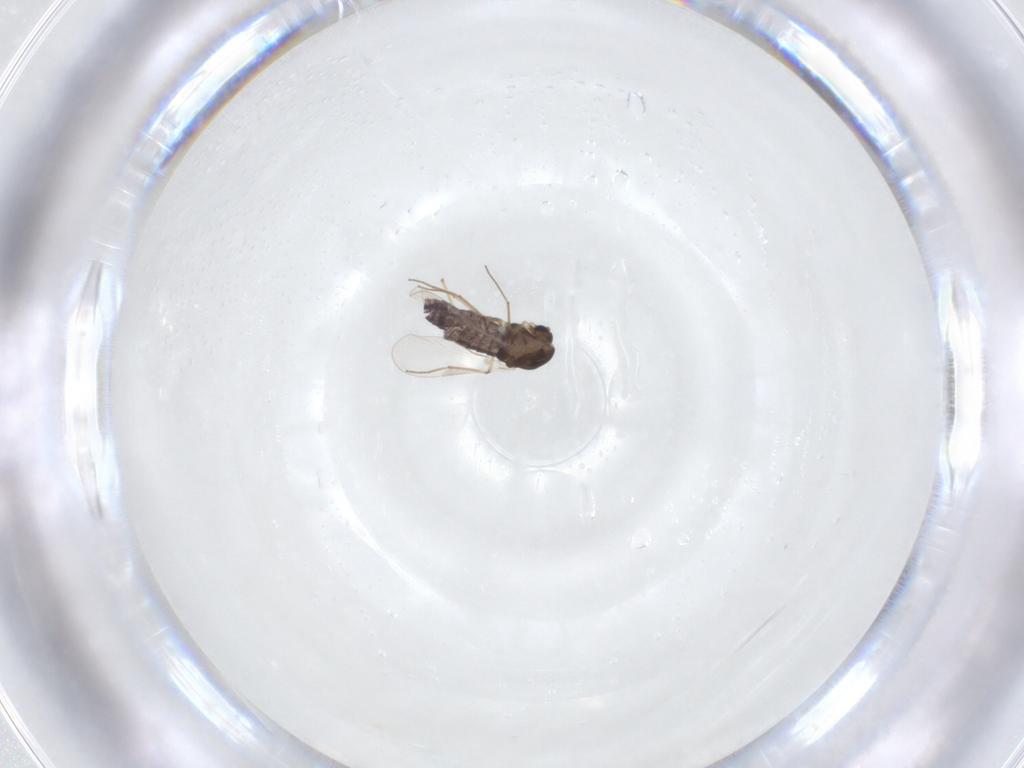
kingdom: Animalia
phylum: Arthropoda
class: Insecta
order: Diptera
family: Chironomidae
